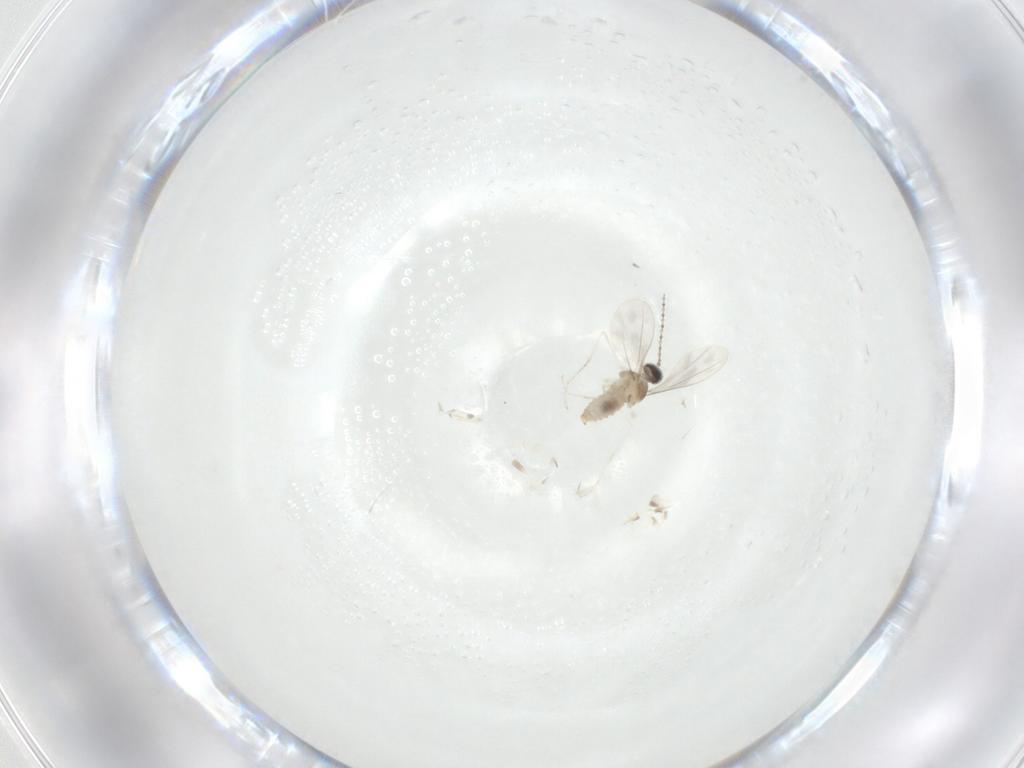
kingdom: Animalia
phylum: Arthropoda
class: Insecta
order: Diptera
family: Cecidomyiidae
